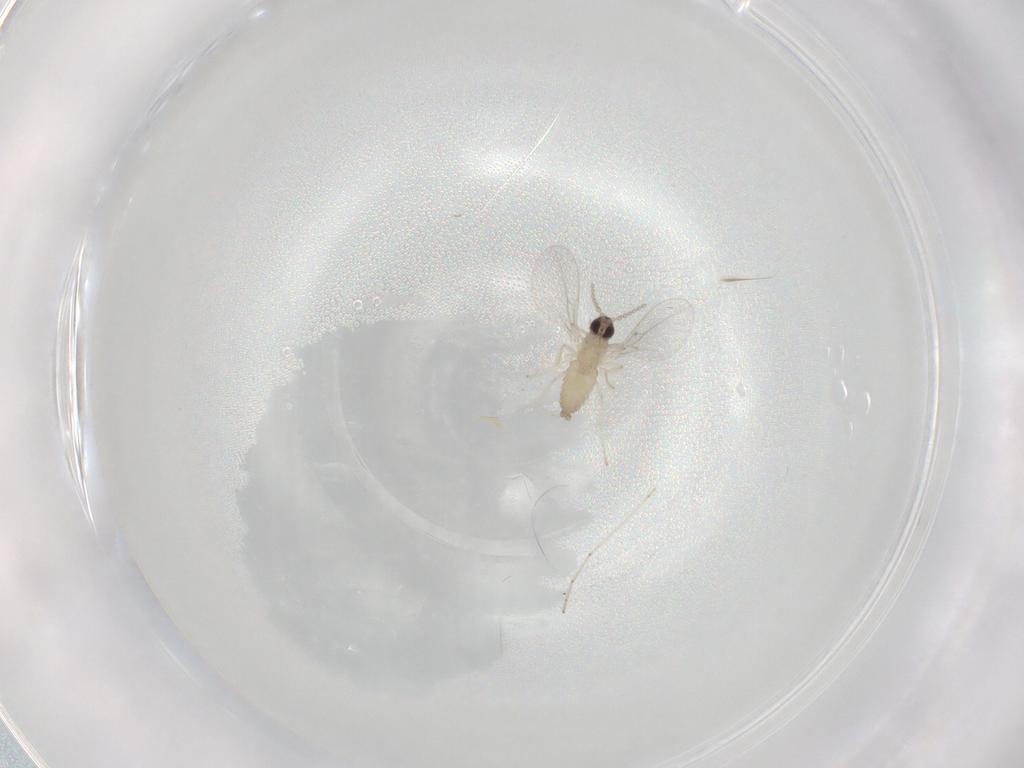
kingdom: Animalia
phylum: Arthropoda
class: Insecta
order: Diptera
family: Cecidomyiidae
